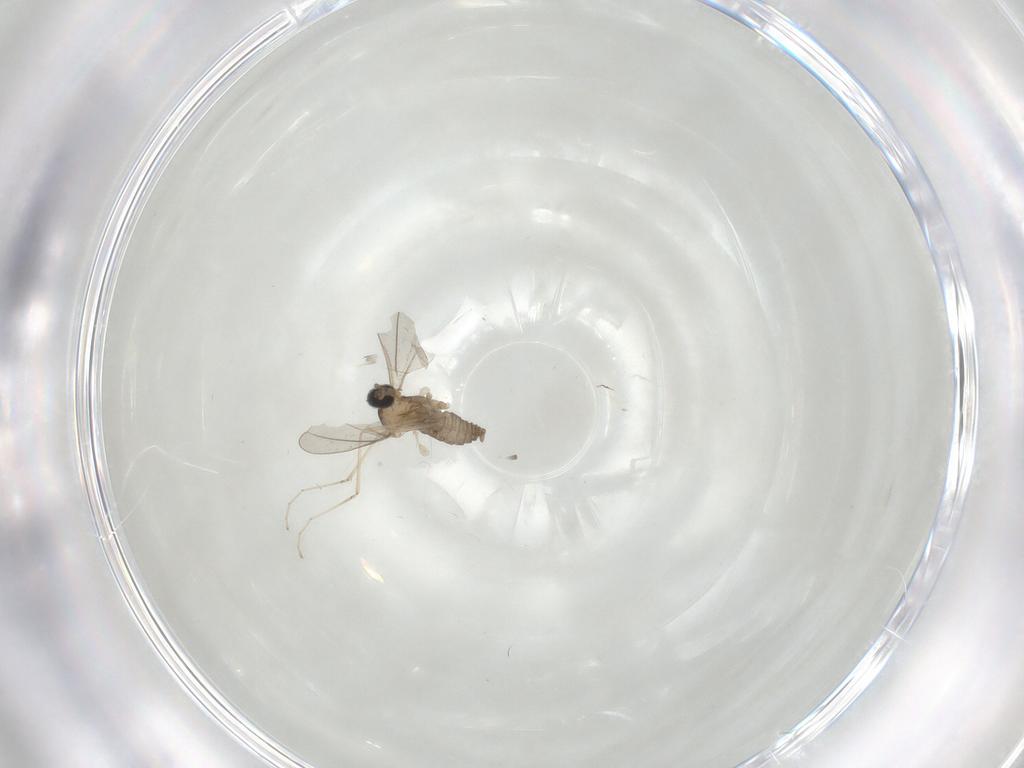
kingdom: Animalia
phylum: Arthropoda
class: Insecta
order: Diptera
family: Cecidomyiidae
